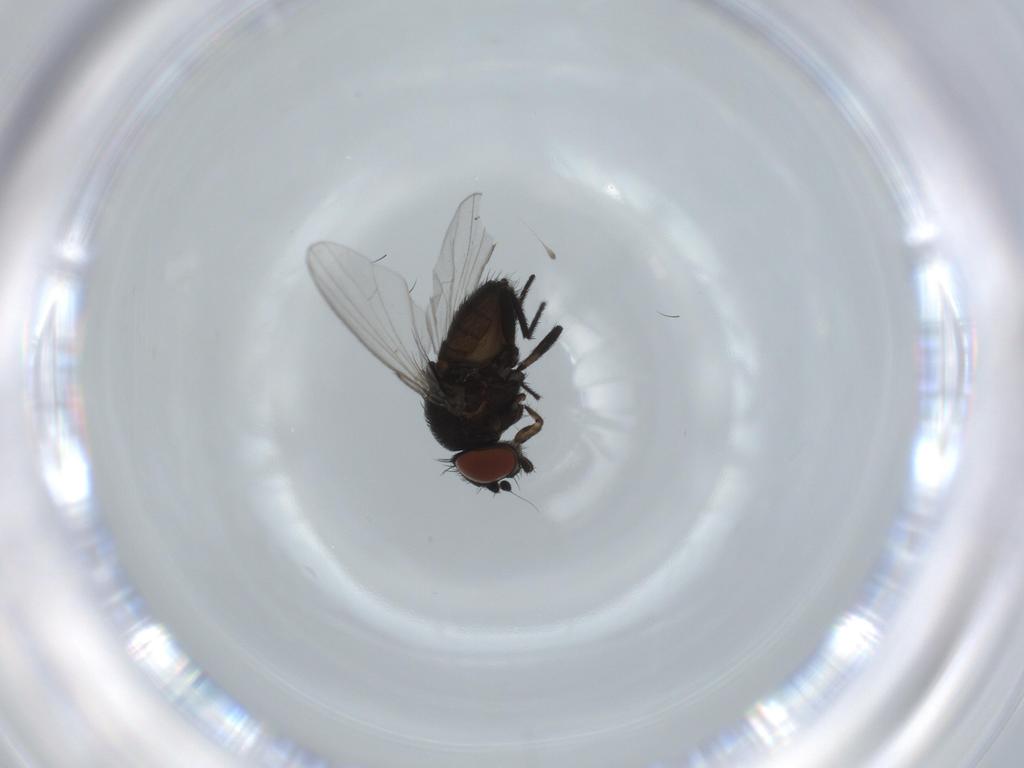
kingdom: Animalia
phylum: Arthropoda
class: Insecta
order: Diptera
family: Milichiidae
